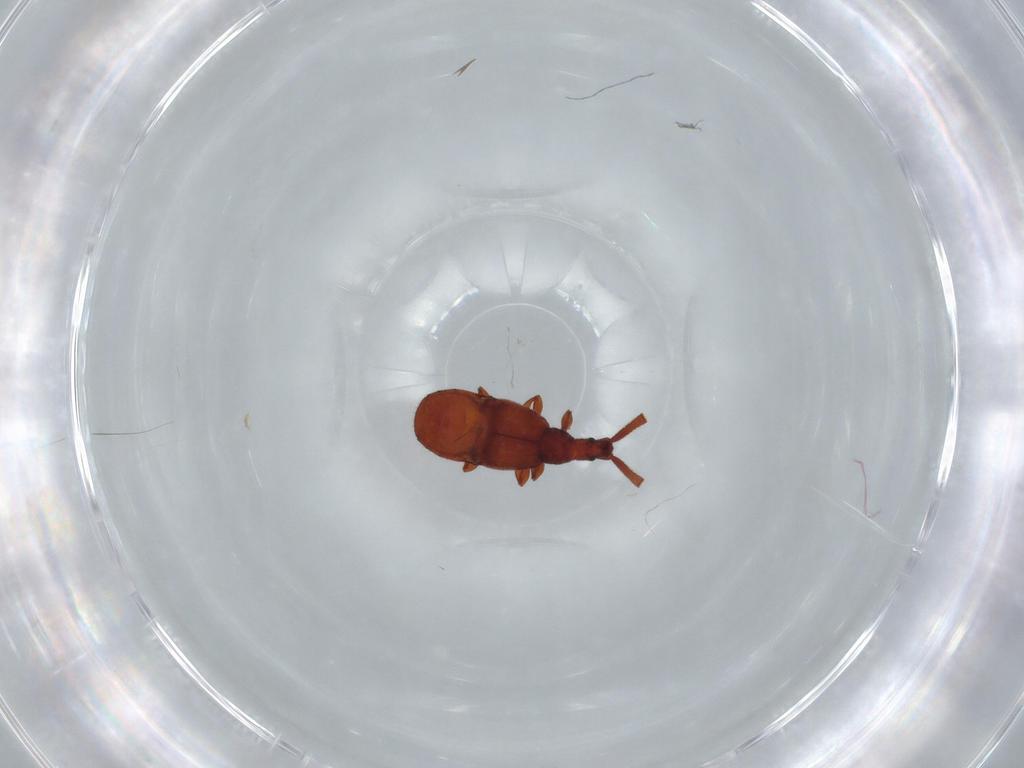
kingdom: Animalia
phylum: Arthropoda
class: Insecta
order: Coleoptera
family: Staphylinidae
